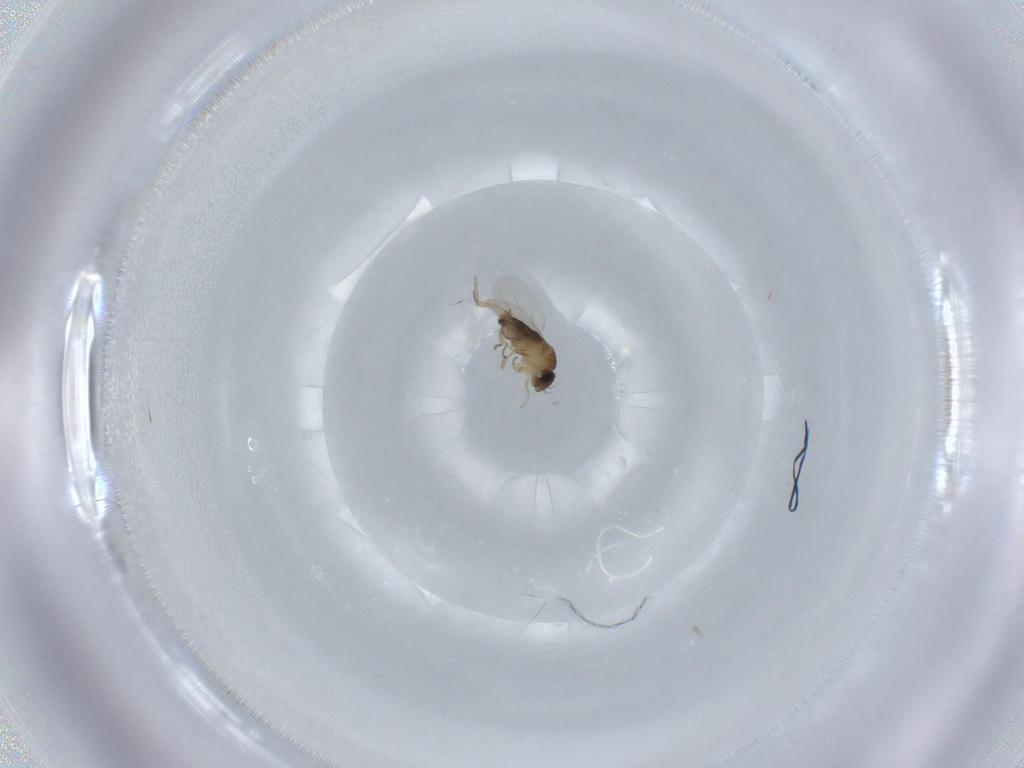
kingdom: Animalia
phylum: Arthropoda
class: Insecta
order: Diptera
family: Phoridae
